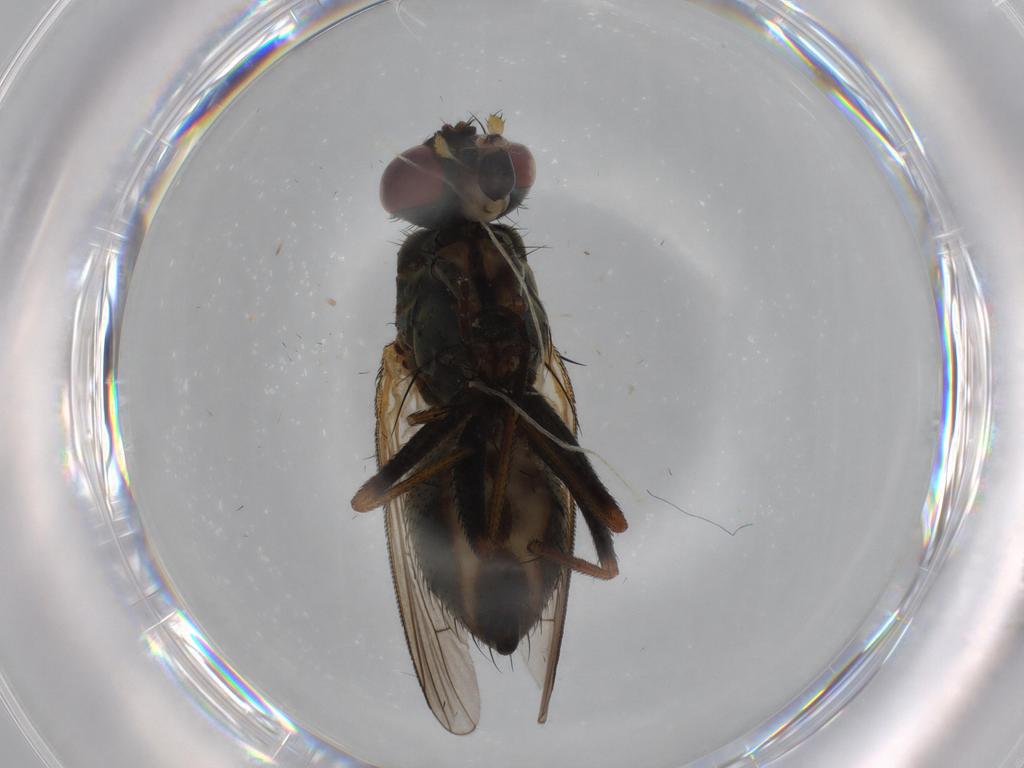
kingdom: Animalia
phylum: Arthropoda
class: Insecta
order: Diptera
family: Muscidae
